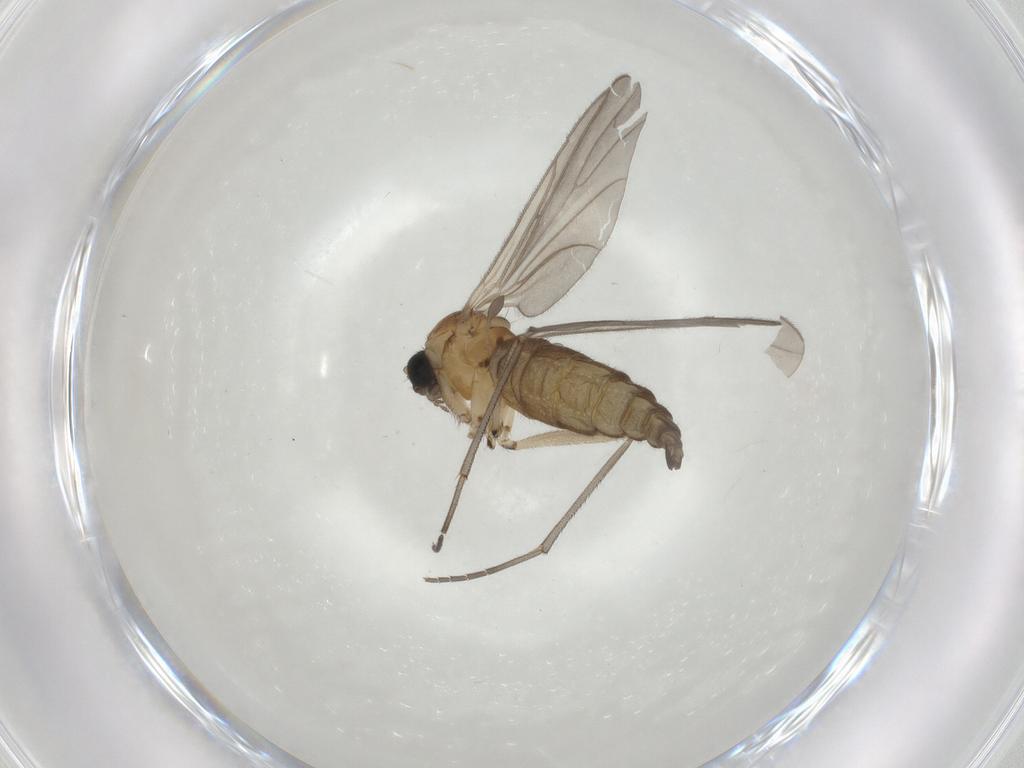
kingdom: Animalia
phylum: Arthropoda
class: Insecta
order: Diptera
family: Sciaridae
